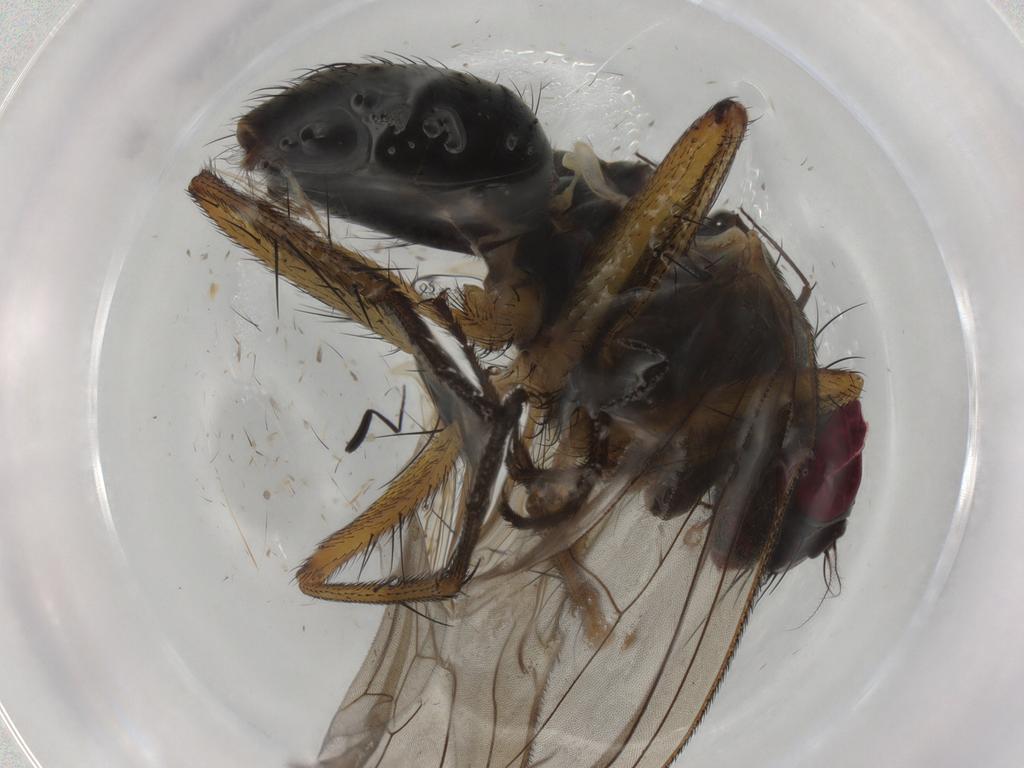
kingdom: Animalia
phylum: Arthropoda
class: Insecta
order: Diptera
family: Muscidae
